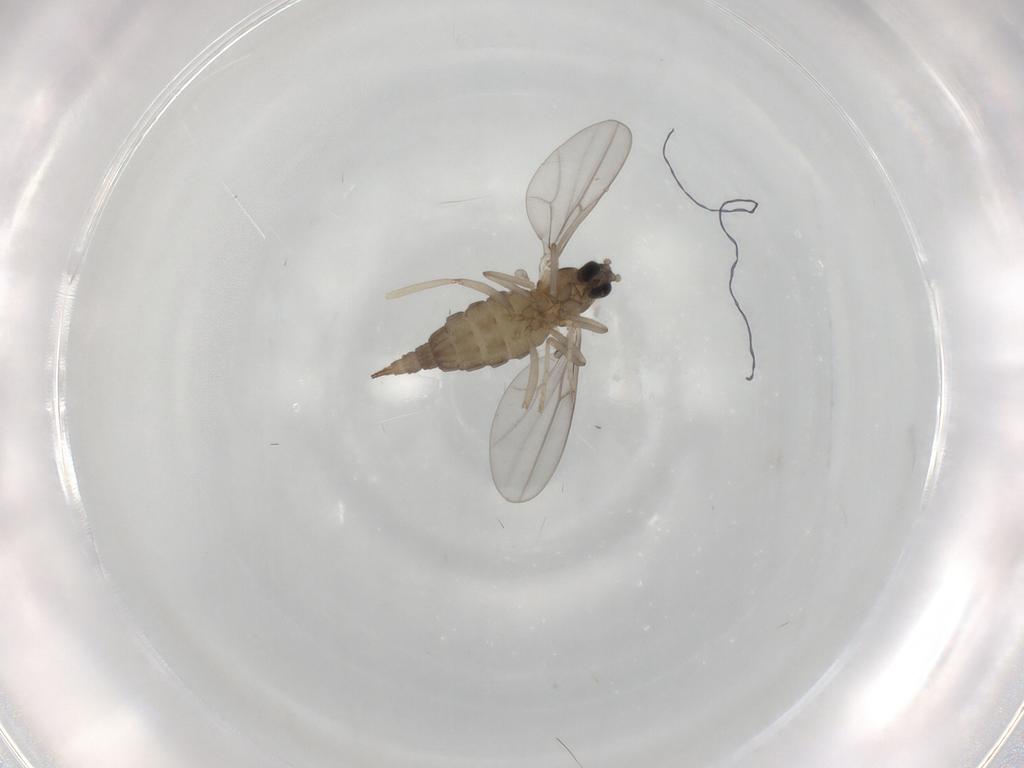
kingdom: Animalia
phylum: Arthropoda
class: Insecta
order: Diptera
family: Cecidomyiidae
